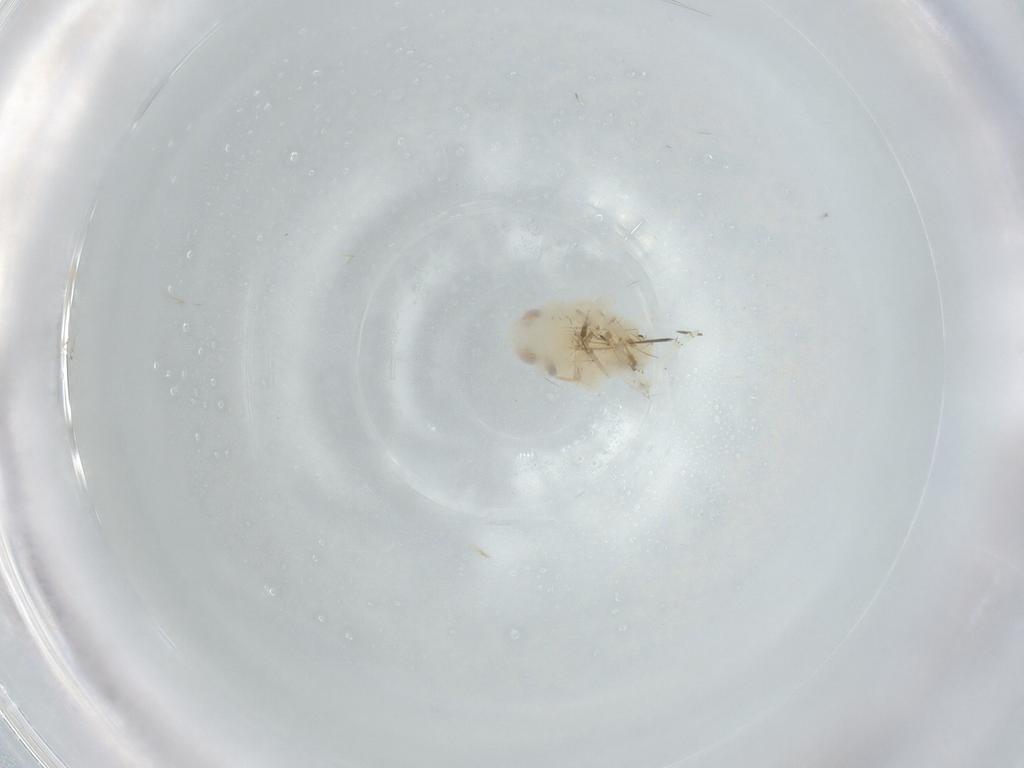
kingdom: Animalia
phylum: Arthropoda
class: Insecta
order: Hemiptera
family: Nogodinidae
